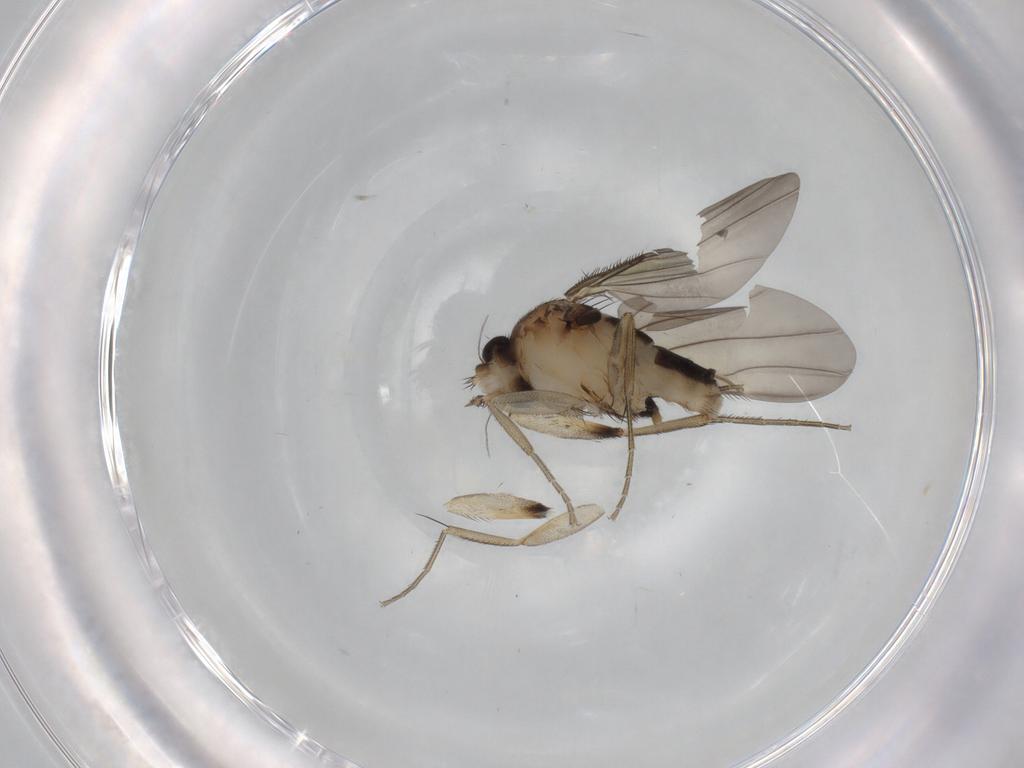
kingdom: Animalia
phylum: Arthropoda
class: Insecta
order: Diptera
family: Phoridae
